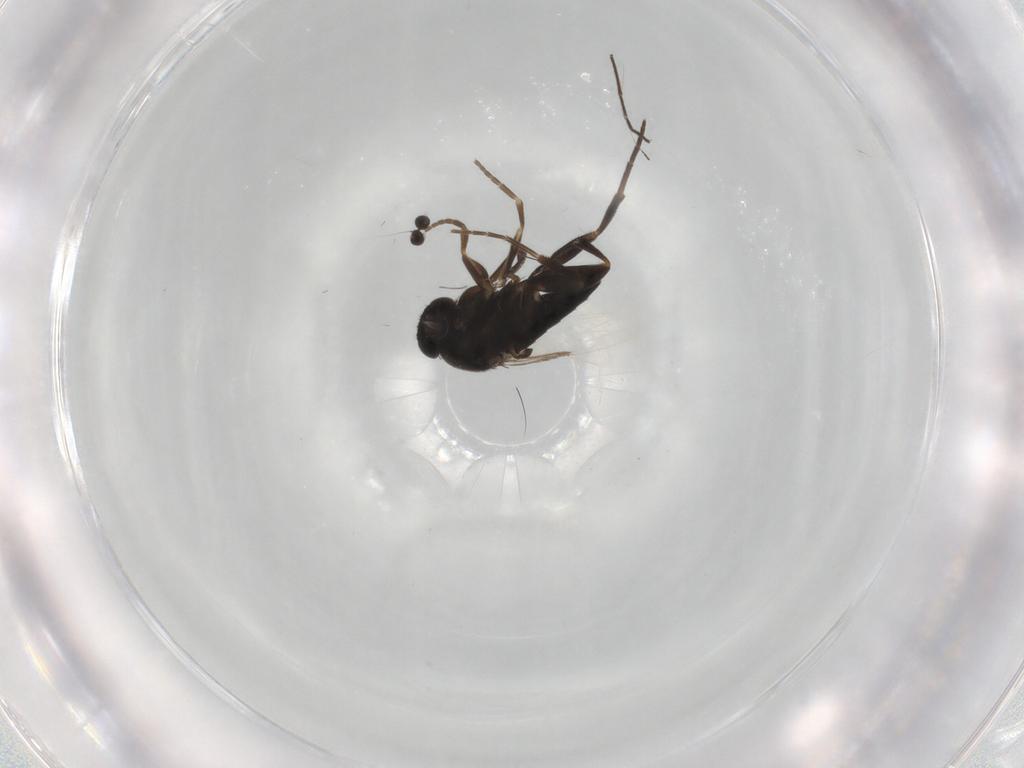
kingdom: Animalia
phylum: Arthropoda
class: Insecta
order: Diptera
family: Phoridae
